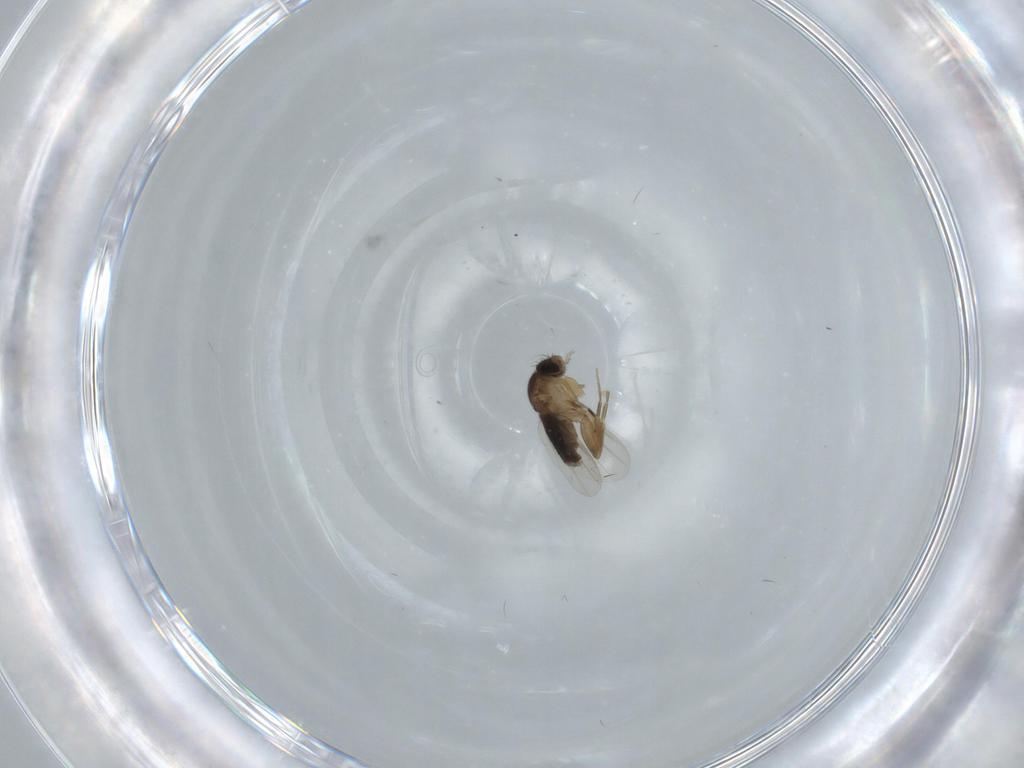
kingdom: Animalia
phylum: Arthropoda
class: Insecta
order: Diptera
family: Phoridae
